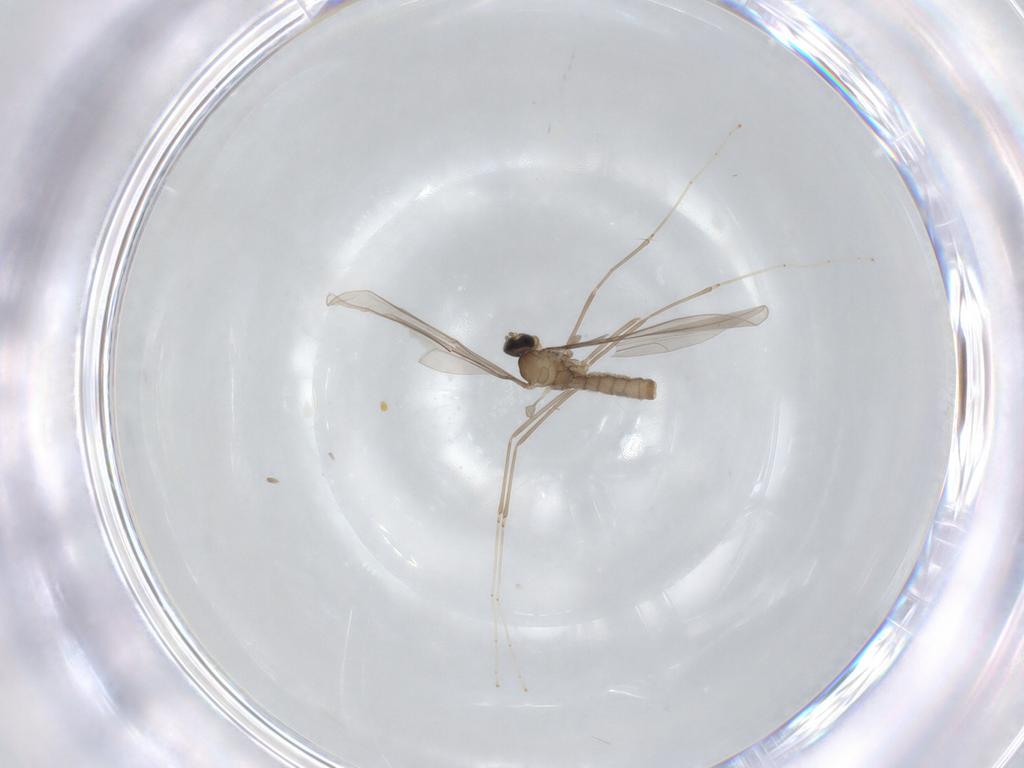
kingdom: Animalia
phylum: Arthropoda
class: Insecta
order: Diptera
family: Cecidomyiidae
